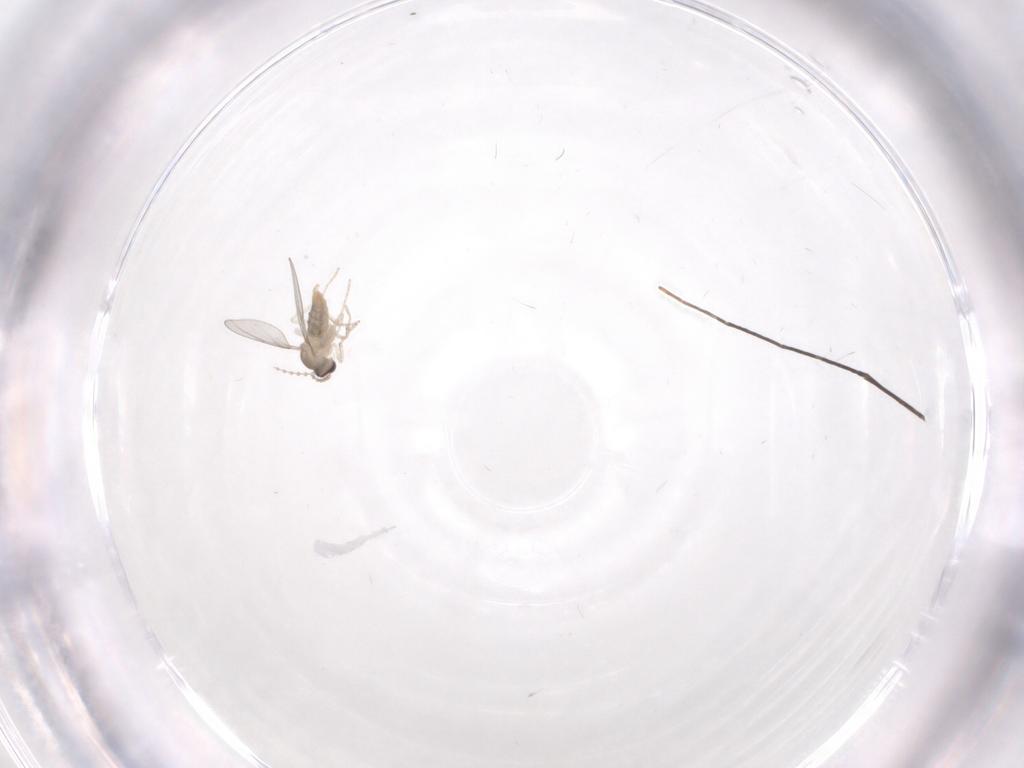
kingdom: Animalia
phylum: Arthropoda
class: Insecta
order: Diptera
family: Cecidomyiidae
